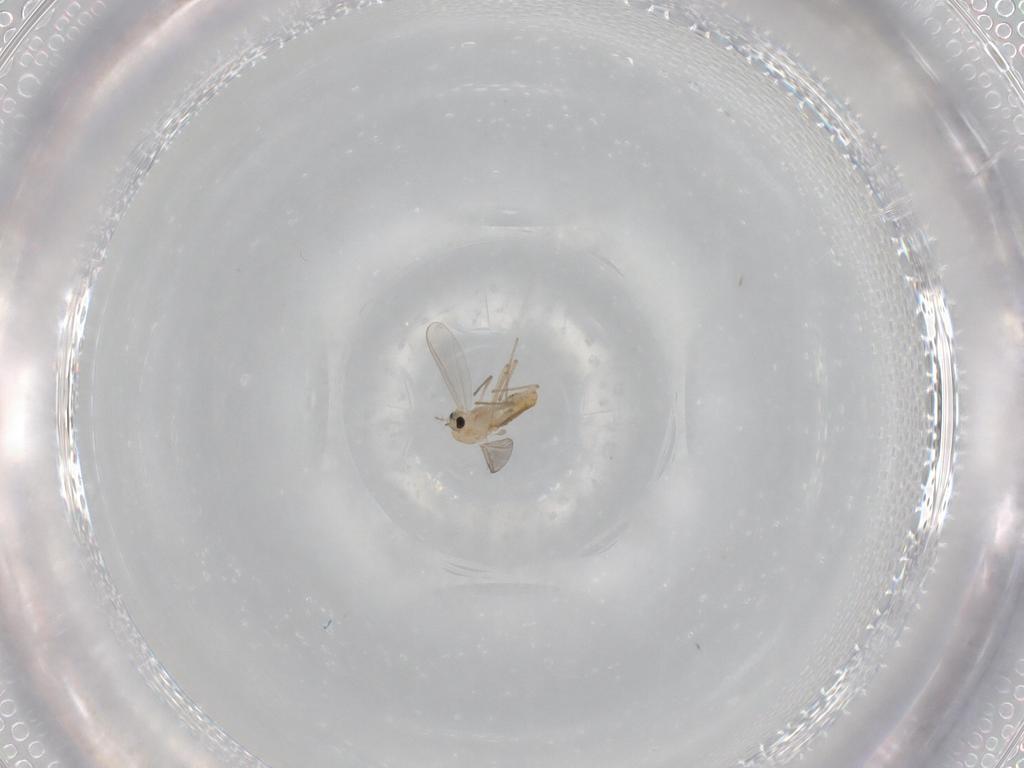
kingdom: Animalia
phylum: Arthropoda
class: Insecta
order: Diptera
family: Chironomidae
